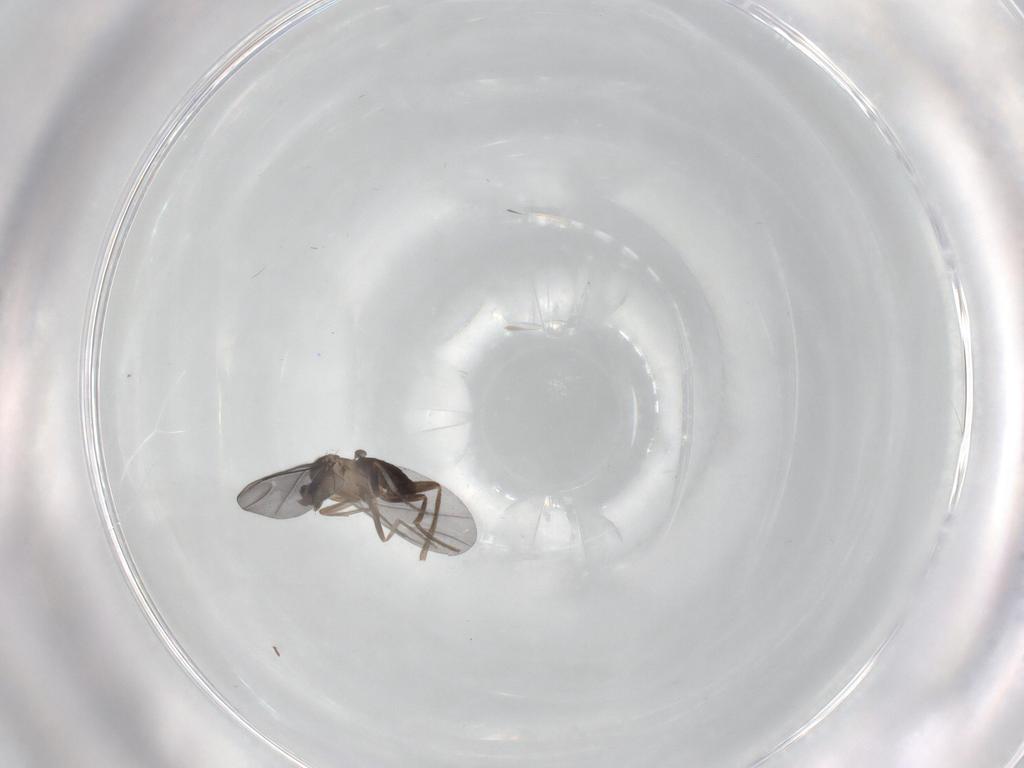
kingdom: Animalia
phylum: Arthropoda
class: Insecta
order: Diptera
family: Phoridae
